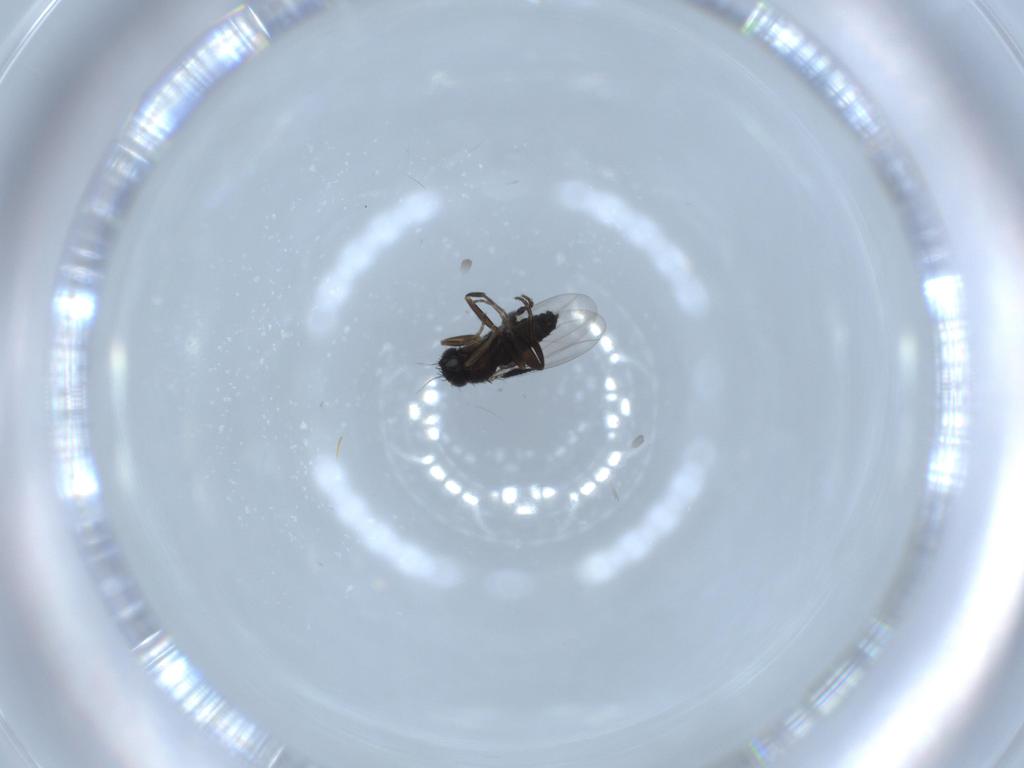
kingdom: Animalia
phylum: Arthropoda
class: Insecta
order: Diptera
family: Phoridae
